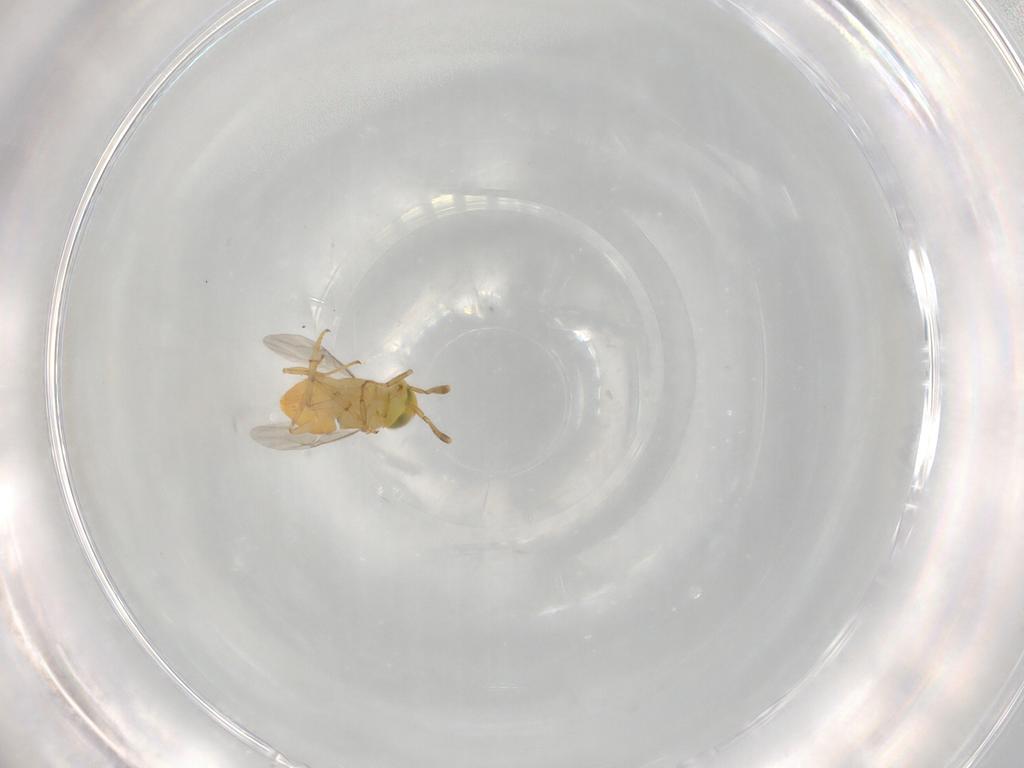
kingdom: Animalia
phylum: Arthropoda
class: Insecta
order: Hymenoptera
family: Encyrtidae
